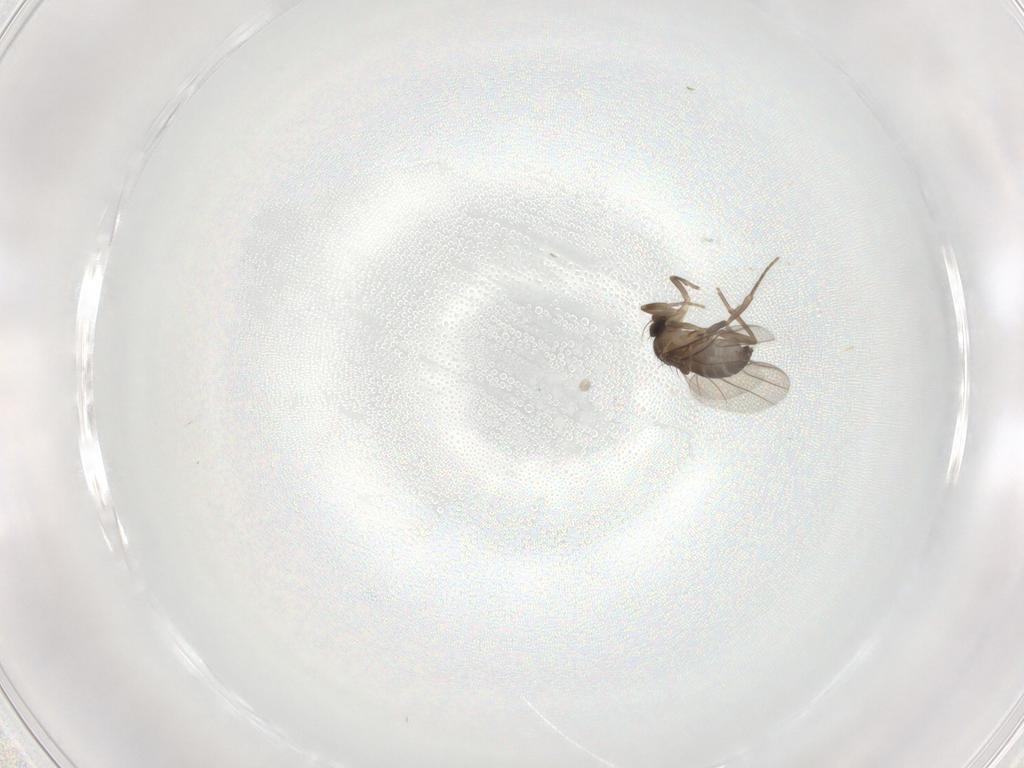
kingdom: Animalia
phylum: Arthropoda
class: Insecta
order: Diptera
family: Phoridae
